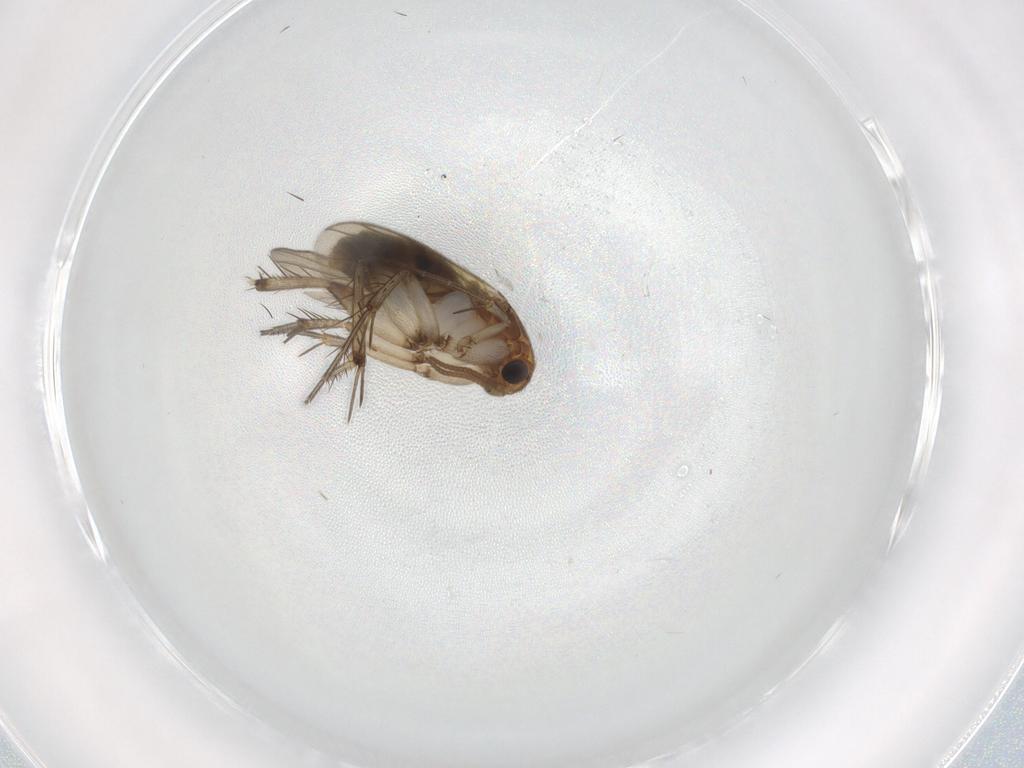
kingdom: Animalia
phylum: Arthropoda
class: Insecta
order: Diptera
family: Mycetophilidae
